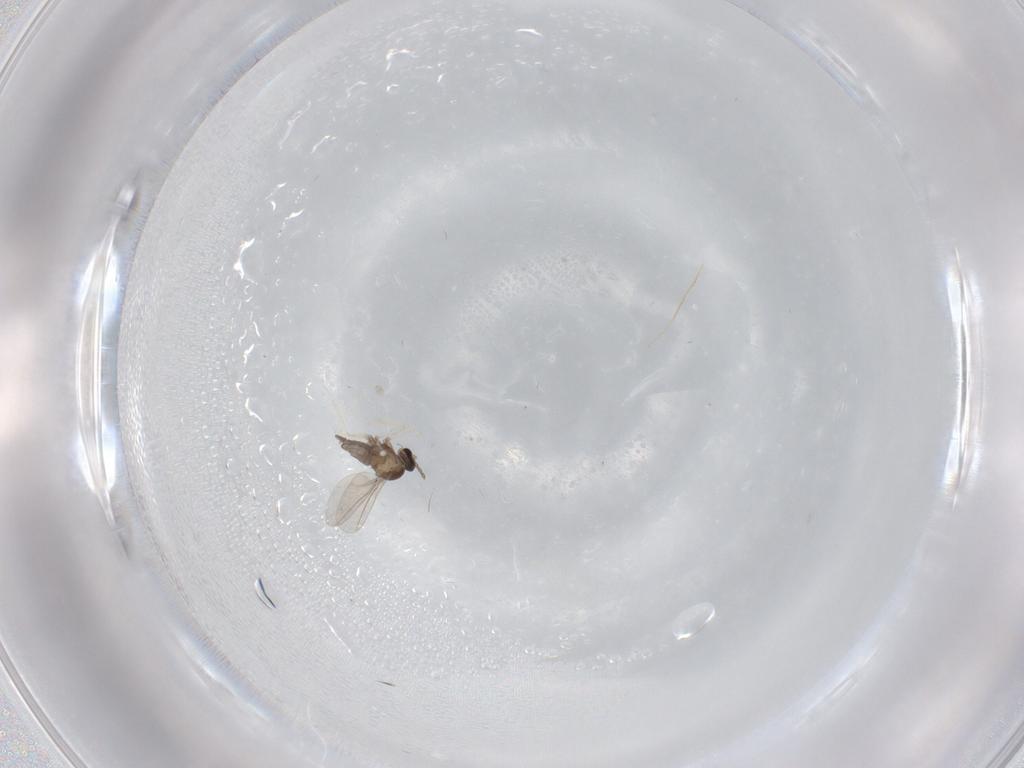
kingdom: Animalia
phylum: Arthropoda
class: Insecta
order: Diptera
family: Cecidomyiidae
